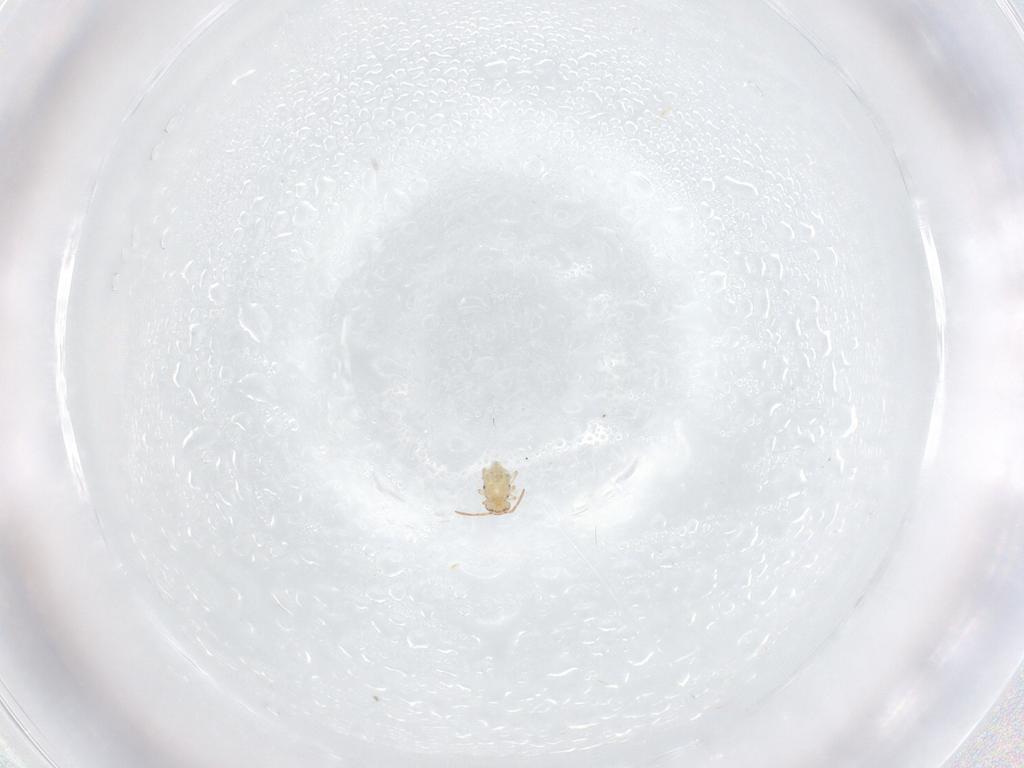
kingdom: Animalia
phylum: Arthropoda
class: Collembola
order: Symphypleona
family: Bourletiellidae
